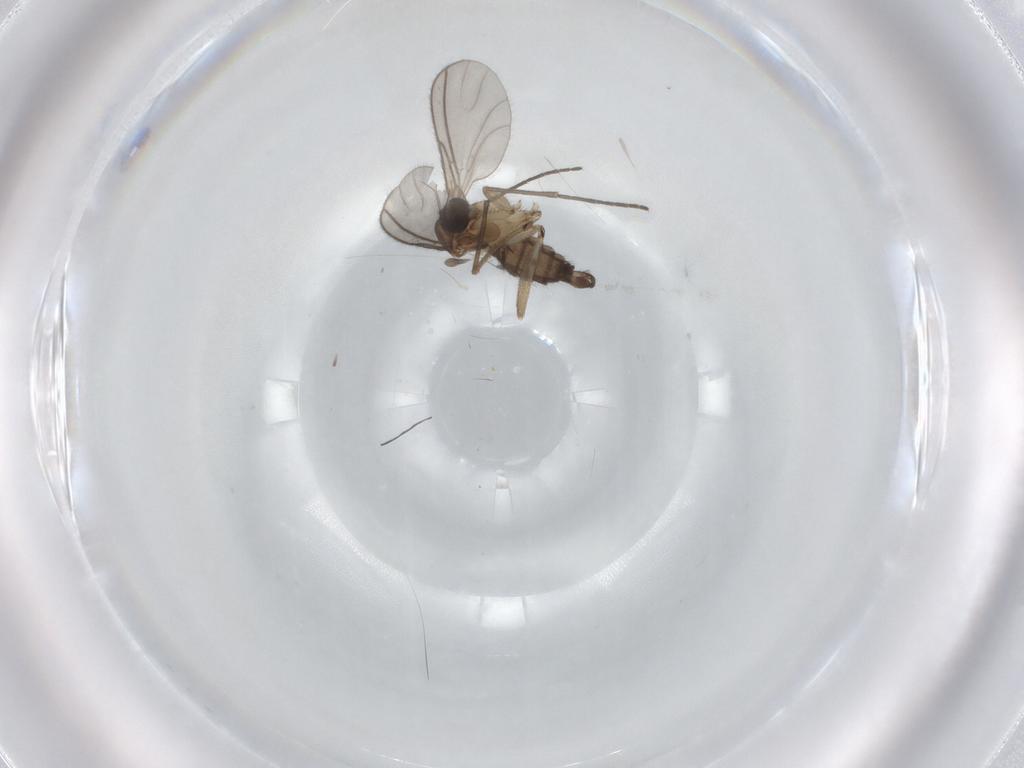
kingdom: Animalia
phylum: Arthropoda
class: Insecta
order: Diptera
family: Sciaridae
